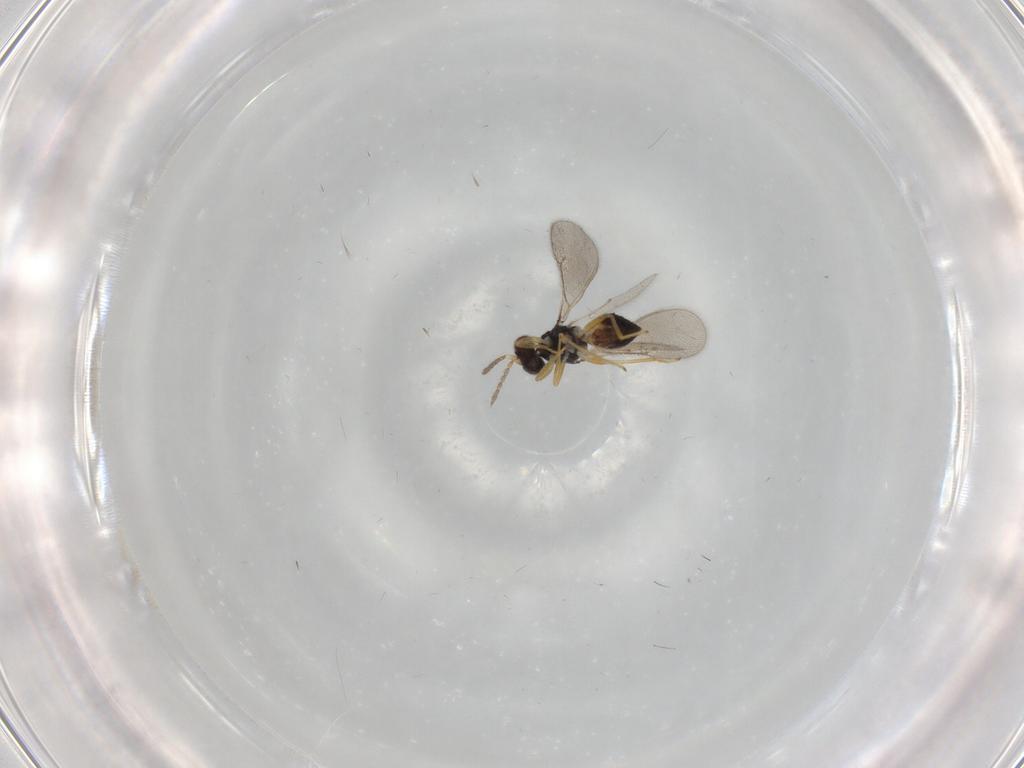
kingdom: Animalia
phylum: Arthropoda
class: Insecta
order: Hymenoptera
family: Eulophidae
